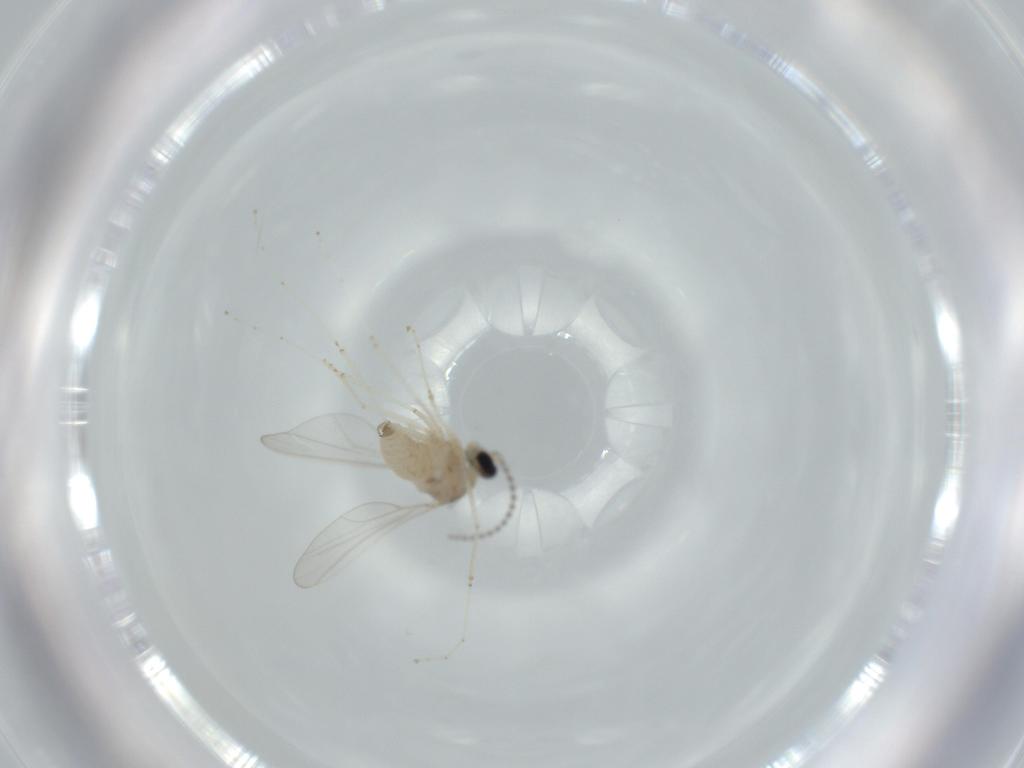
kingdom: Animalia
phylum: Arthropoda
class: Insecta
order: Diptera
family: Cecidomyiidae
